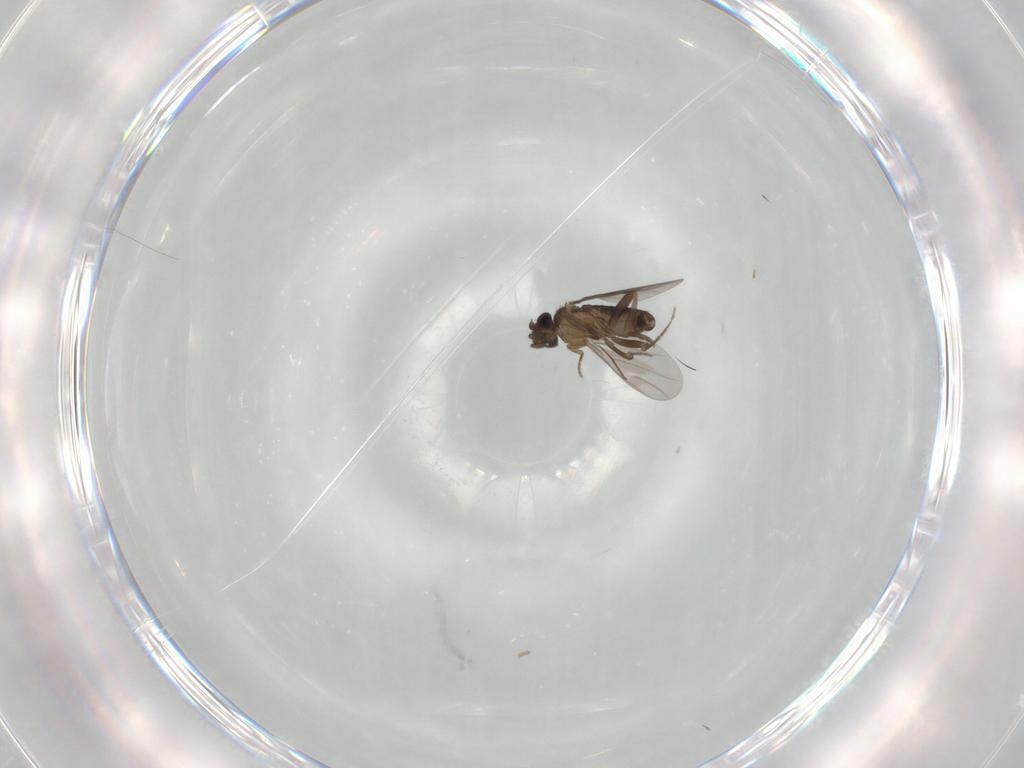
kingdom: Animalia
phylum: Arthropoda
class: Insecta
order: Diptera
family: Phoridae
